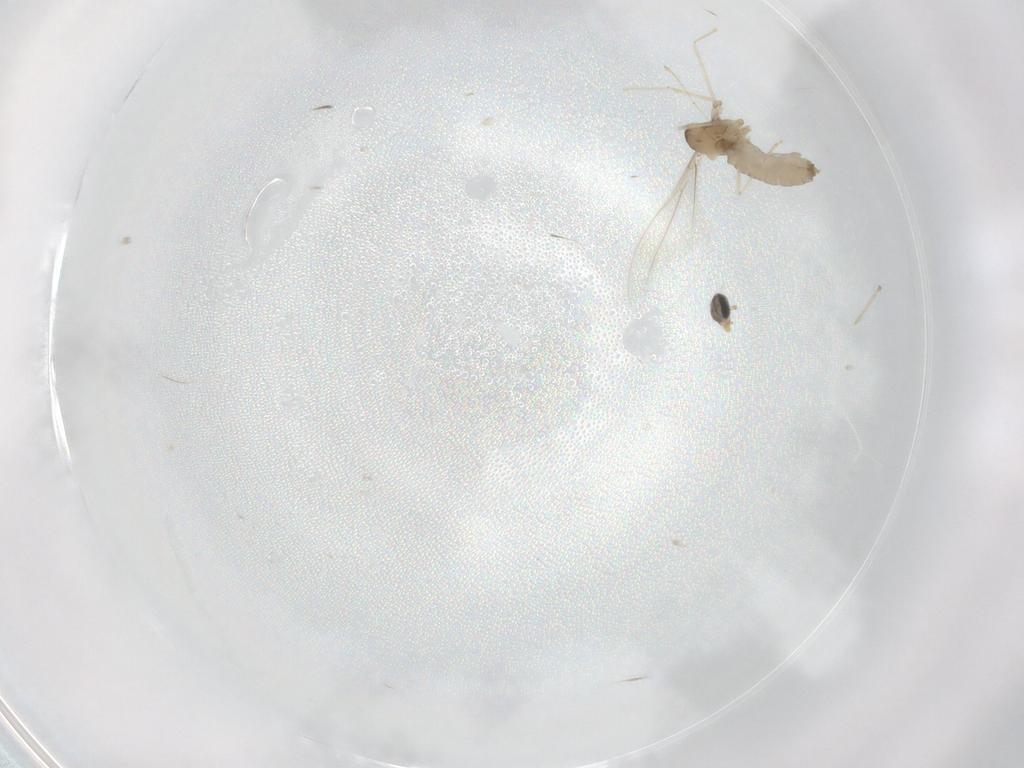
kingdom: Animalia
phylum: Arthropoda
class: Insecta
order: Diptera
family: Cecidomyiidae
